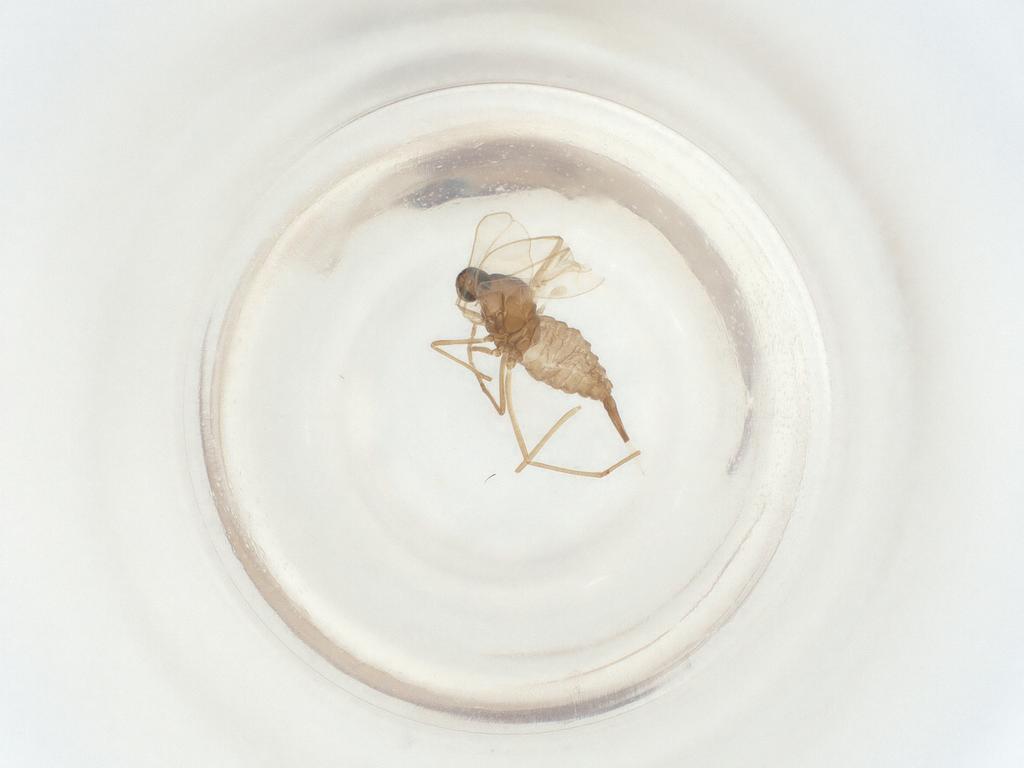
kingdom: Animalia
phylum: Arthropoda
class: Insecta
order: Diptera
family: Cecidomyiidae
